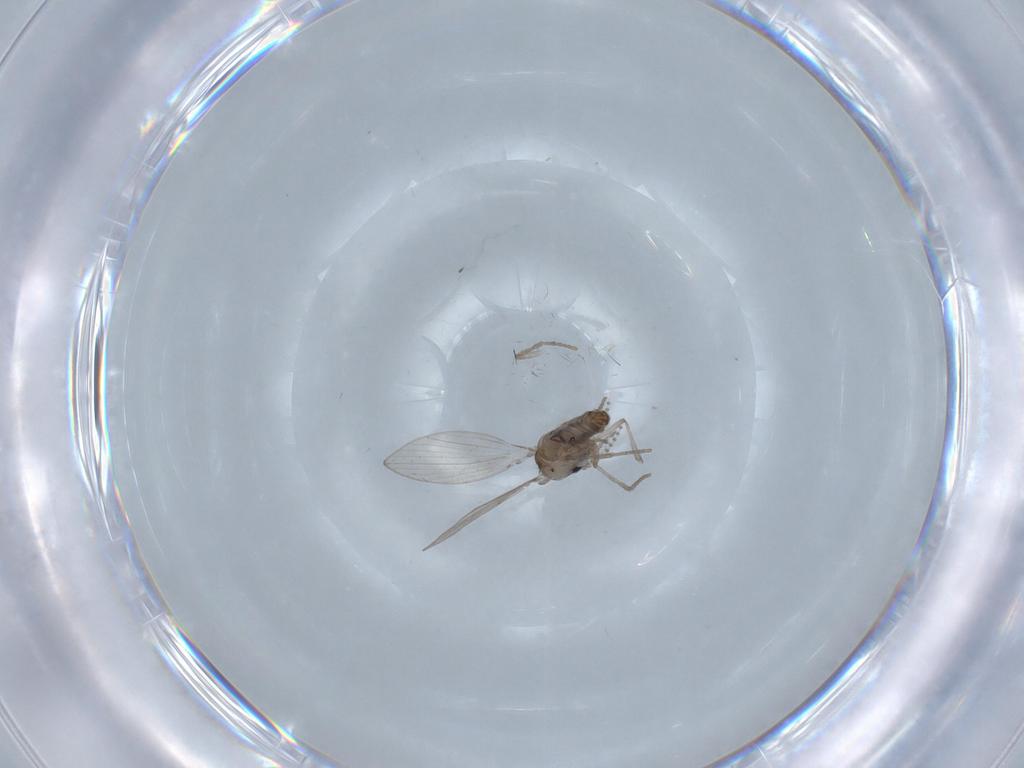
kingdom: Animalia
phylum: Arthropoda
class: Insecta
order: Diptera
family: Psychodidae
